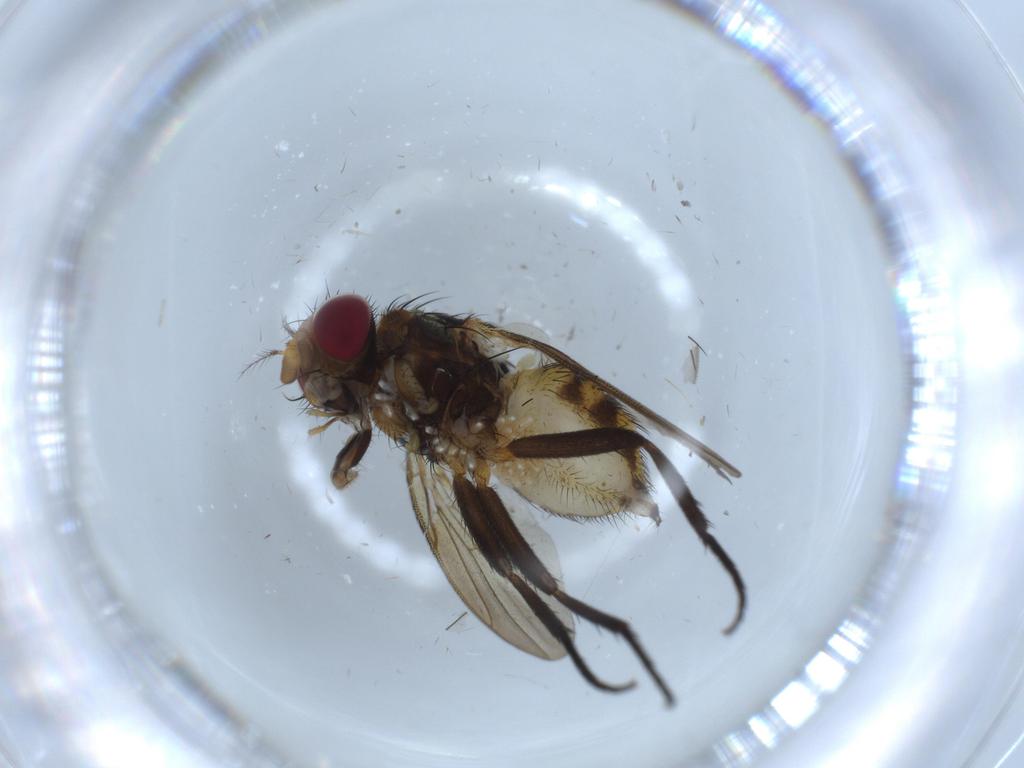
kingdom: Animalia
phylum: Arthropoda
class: Insecta
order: Diptera
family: Anthomyiidae
